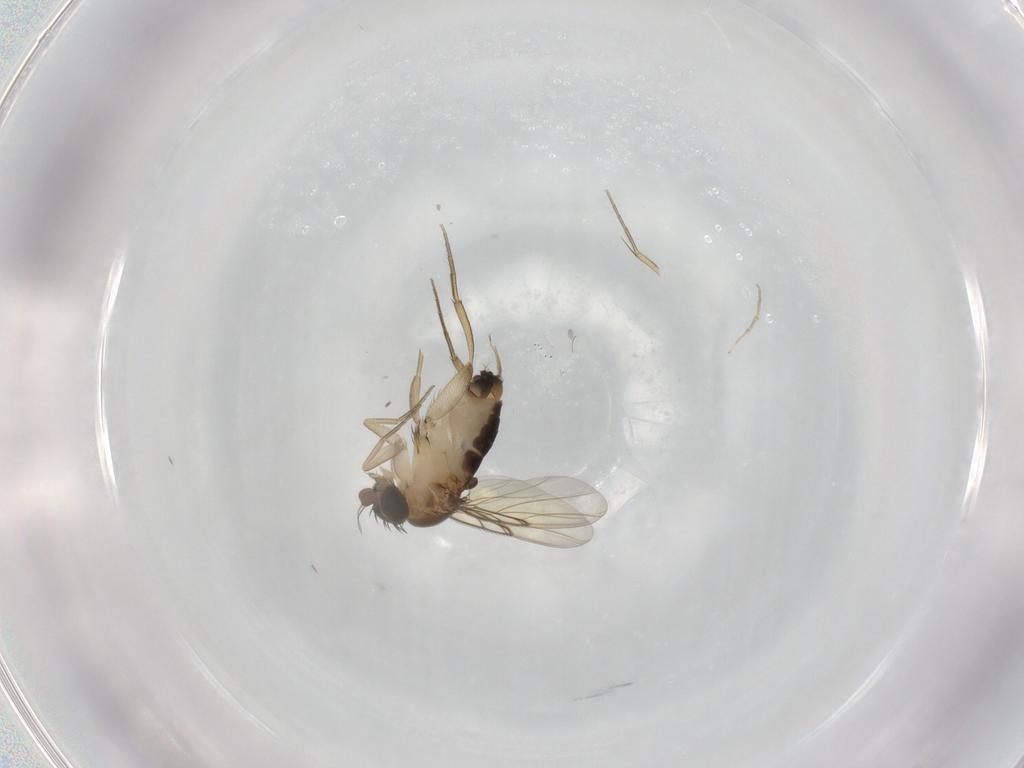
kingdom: Animalia
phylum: Arthropoda
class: Insecta
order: Diptera
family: Phoridae
